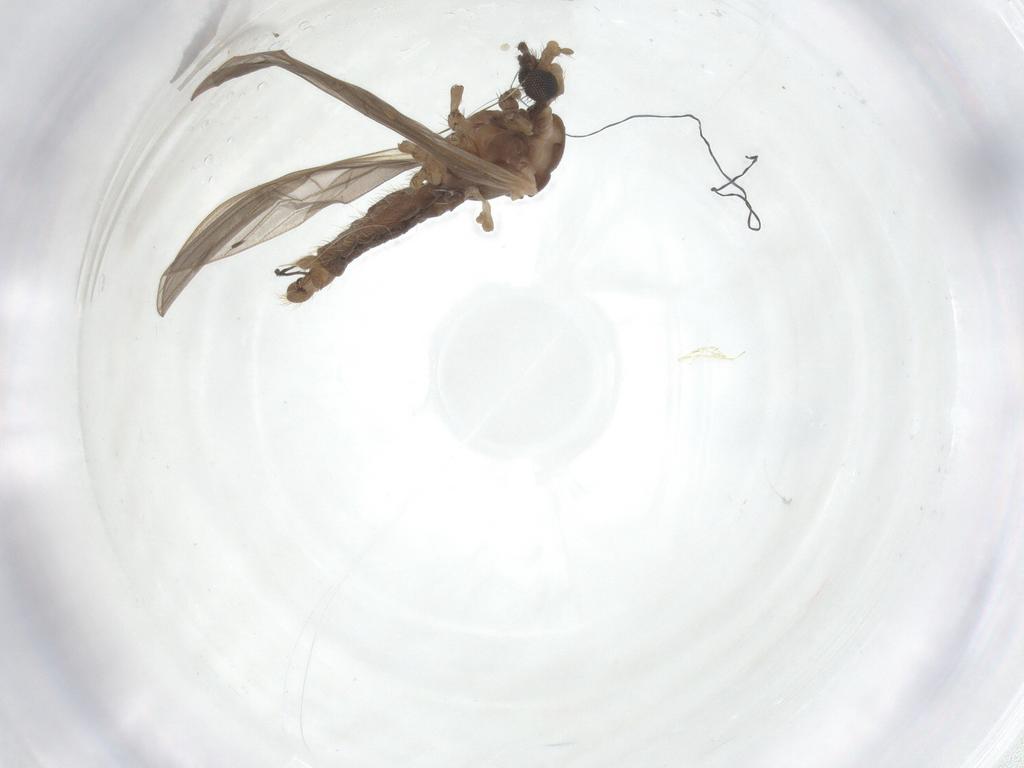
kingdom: Animalia
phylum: Arthropoda
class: Insecta
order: Diptera
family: Limoniidae
